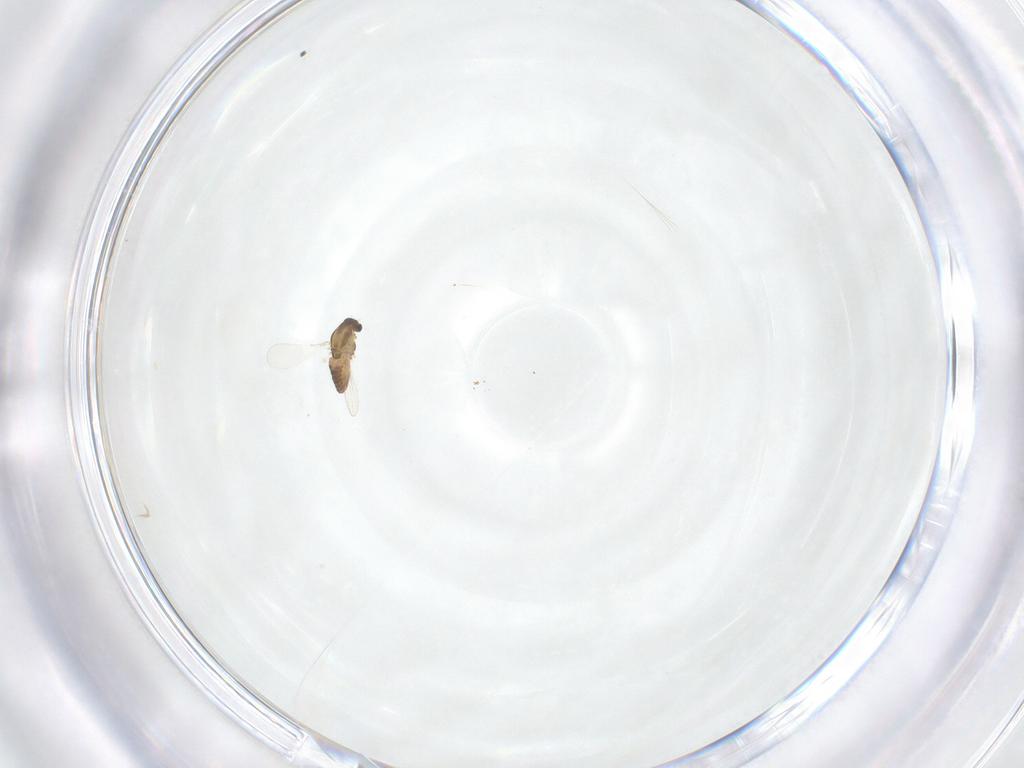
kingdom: Animalia
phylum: Arthropoda
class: Insecta
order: Diptera
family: Chironomidae
